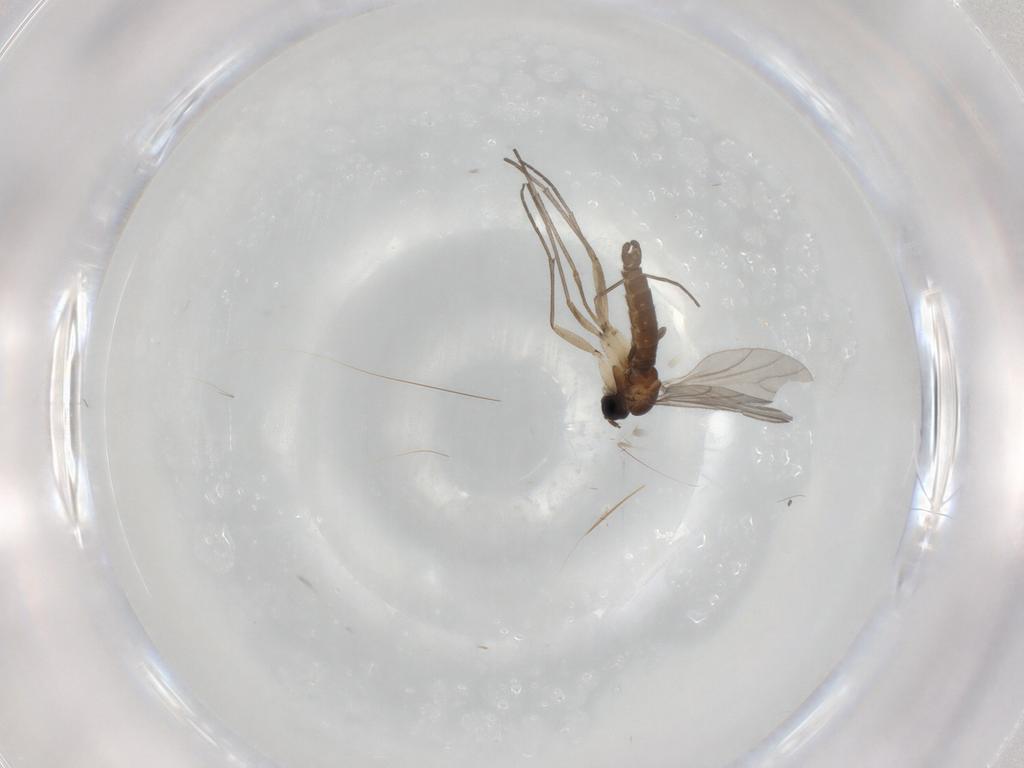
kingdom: Animalia
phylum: Arthropoda
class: Insecta
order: Diptera
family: Sciaridae
